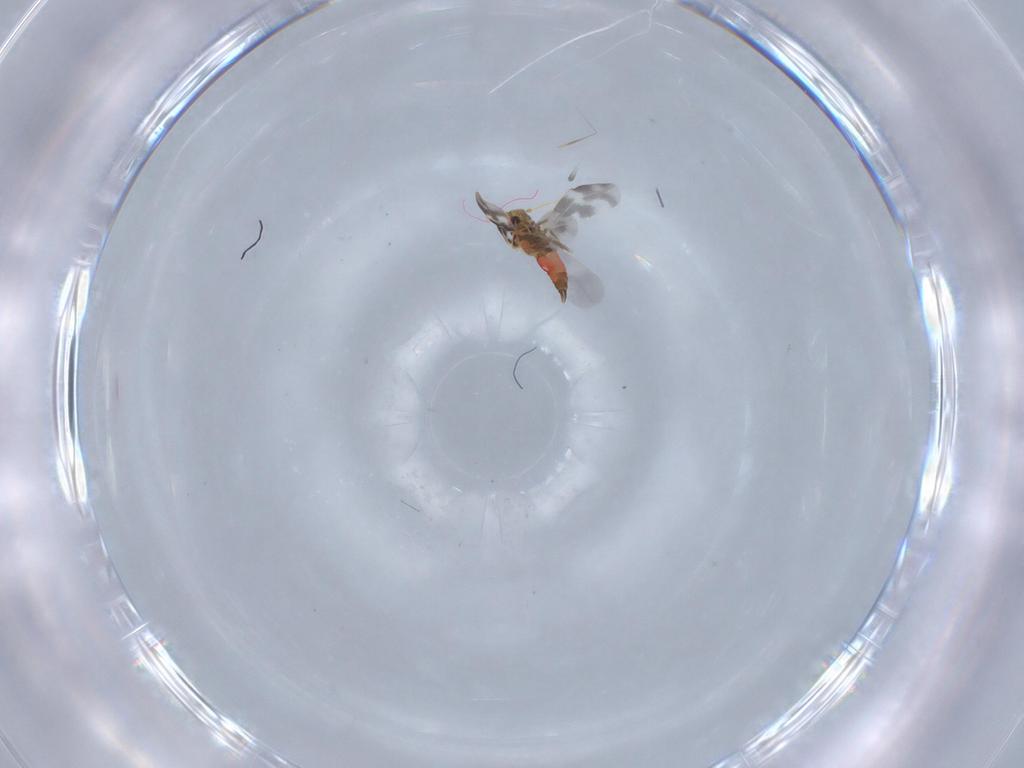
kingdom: Animalia
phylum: Arthropoda
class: Insecta
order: Hemiptera
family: Aleyrodidae
